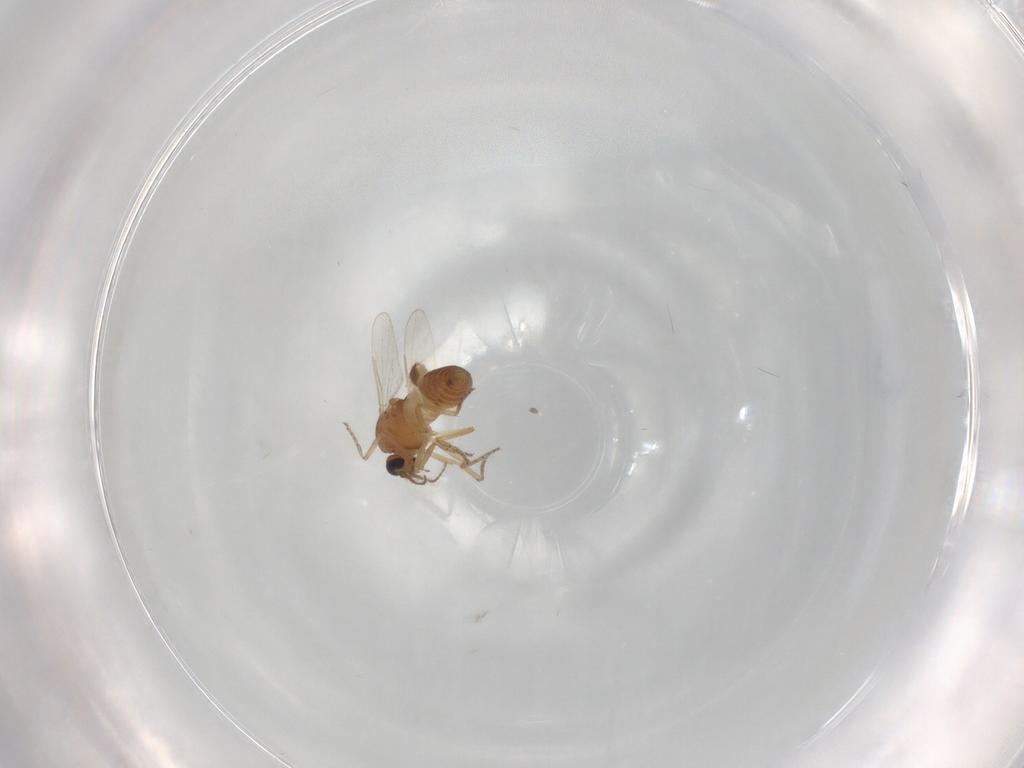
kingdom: Animalia
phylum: Arthropoda
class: Insecta
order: Diptera
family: Ceratopogonidae
